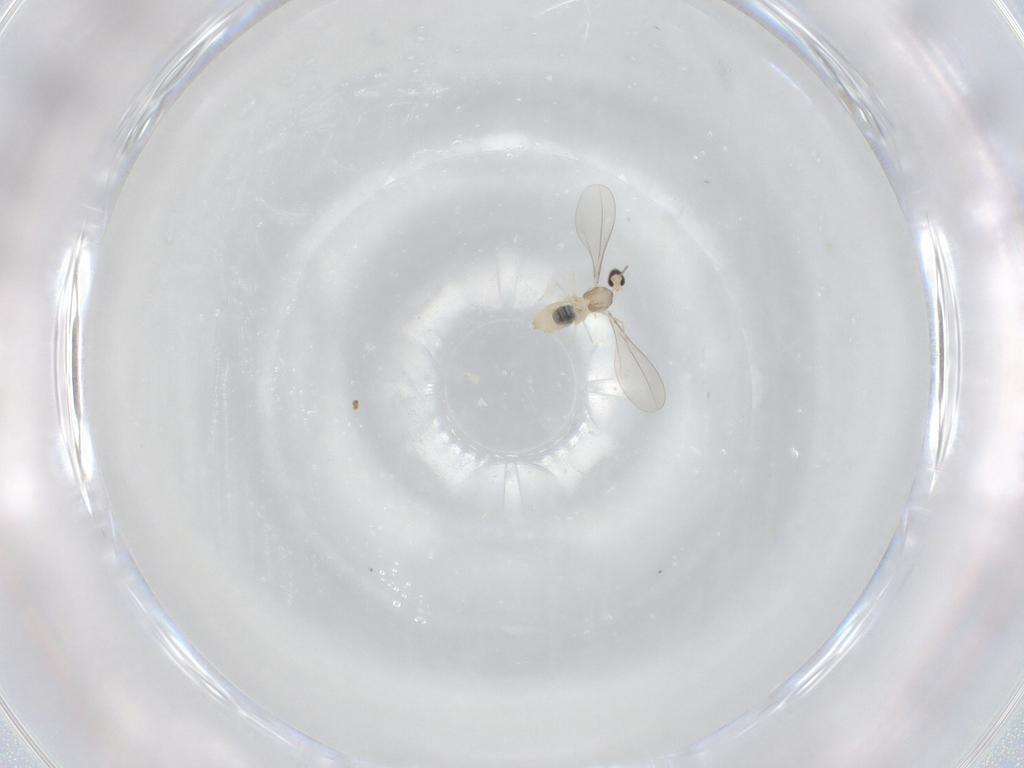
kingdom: Animalia
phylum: Arthropoda
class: Insecta
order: Diptera
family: Cecidomyiidae
